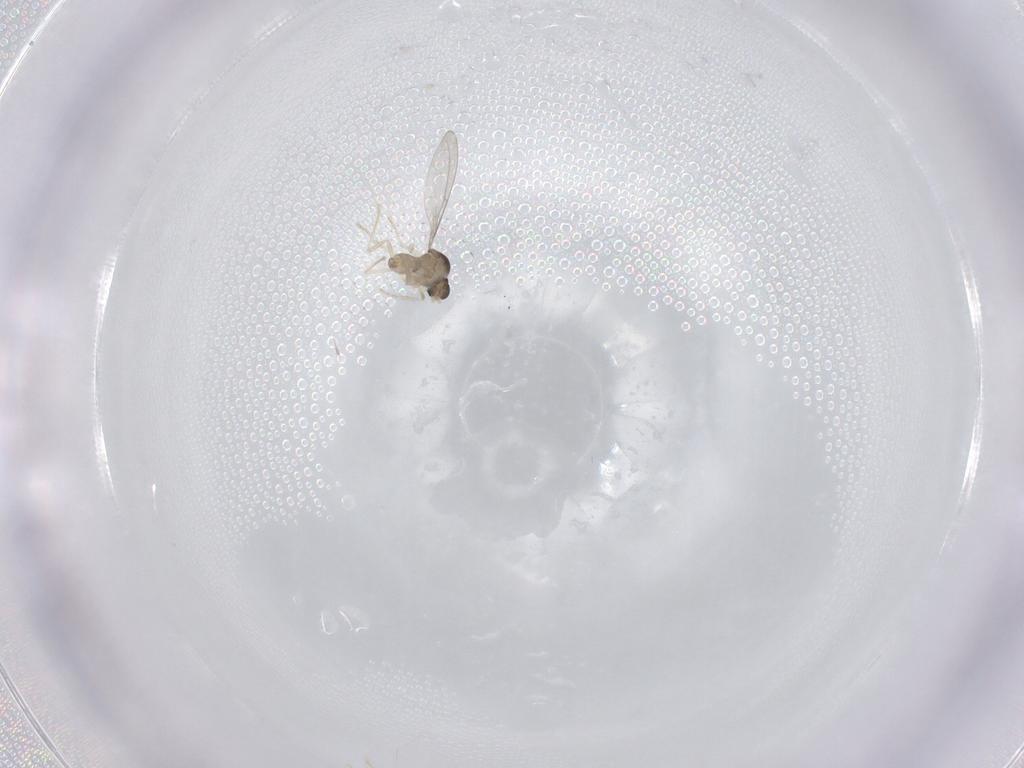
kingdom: Animalia
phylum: Arthropoda
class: Insecta
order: Diptera
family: Cecidomyiidae
